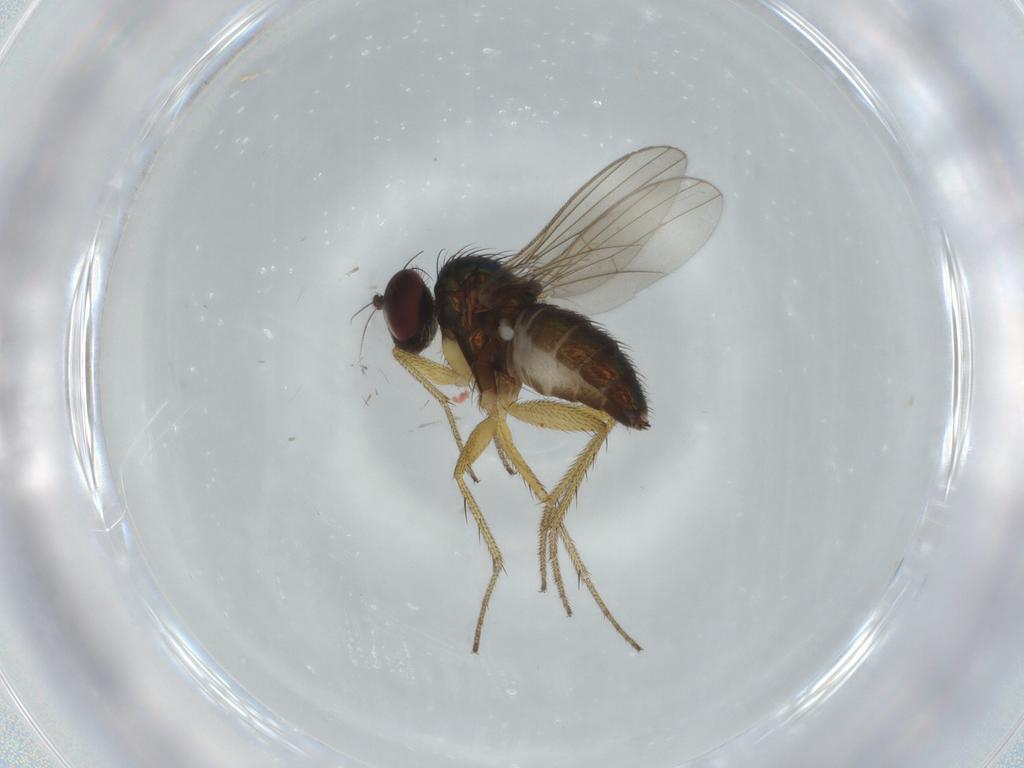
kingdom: Animalia
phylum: Arthropoda
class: Insecta
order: Diptera
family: Dolichopodidae
